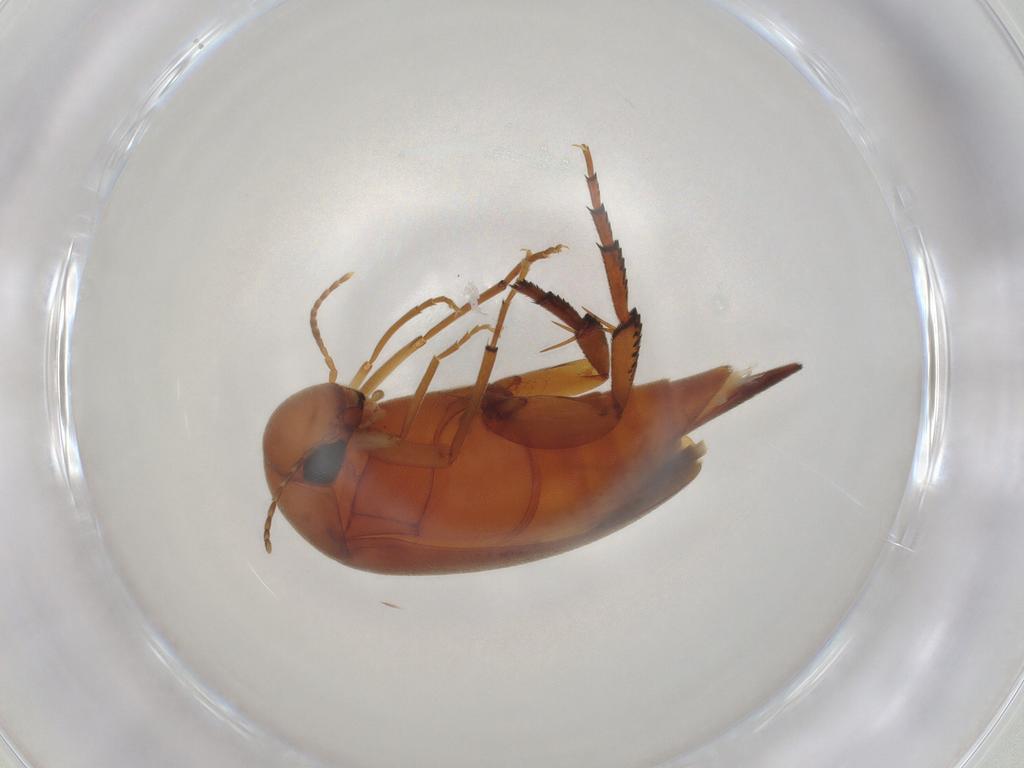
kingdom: Animalia
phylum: Arthropoda
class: Insecta
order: Coleoptera
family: Mordellidae
